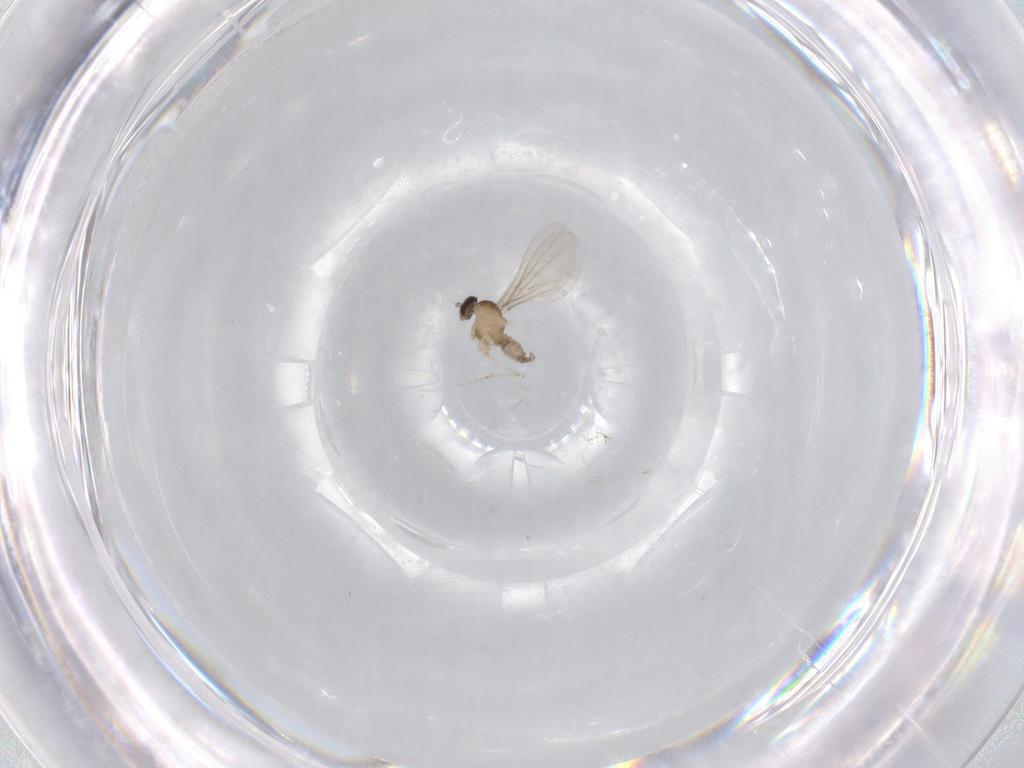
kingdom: Animalia
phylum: Arthropoda
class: Insecta
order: Diptera
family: Cecidomyiidae
